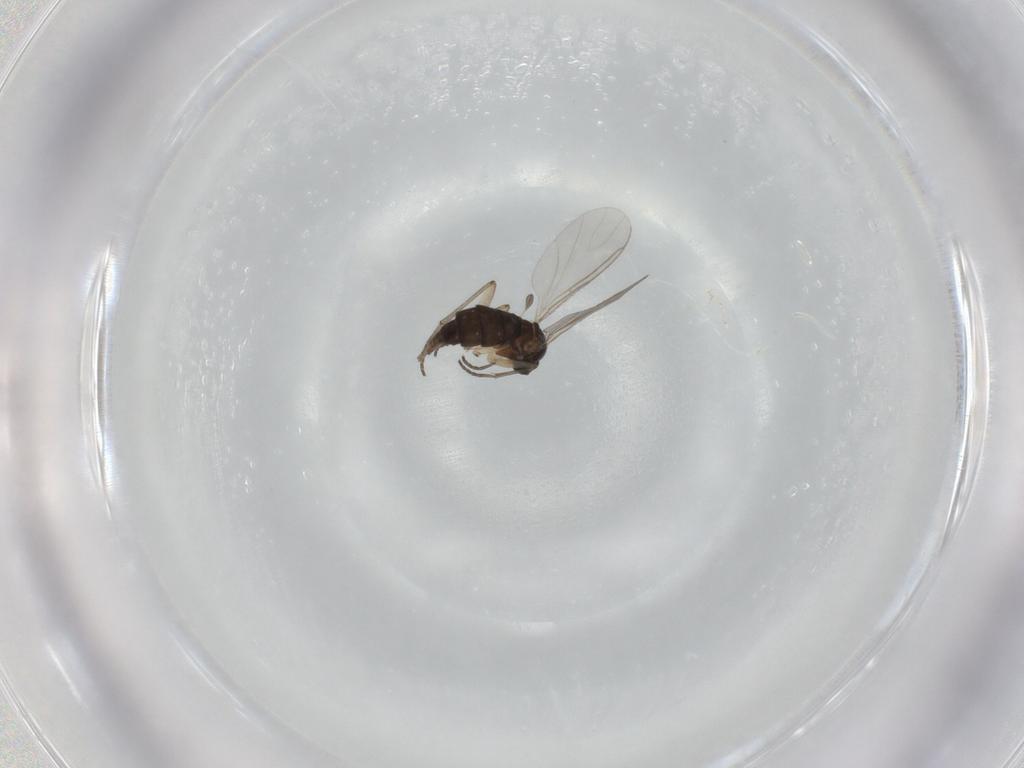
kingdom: Animalia
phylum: Arthropoda
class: Insecta
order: Diptera
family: Sciaridae
